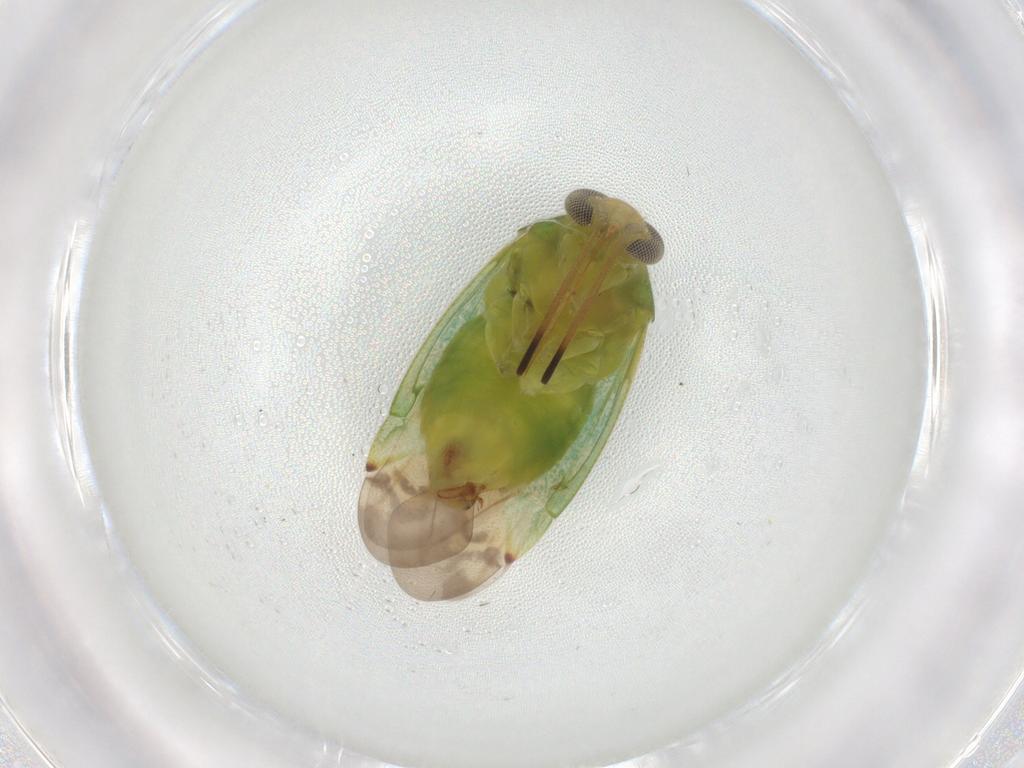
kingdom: Animalia
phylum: Arthropoda
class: Insecta
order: Hemiptera
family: Miridae
